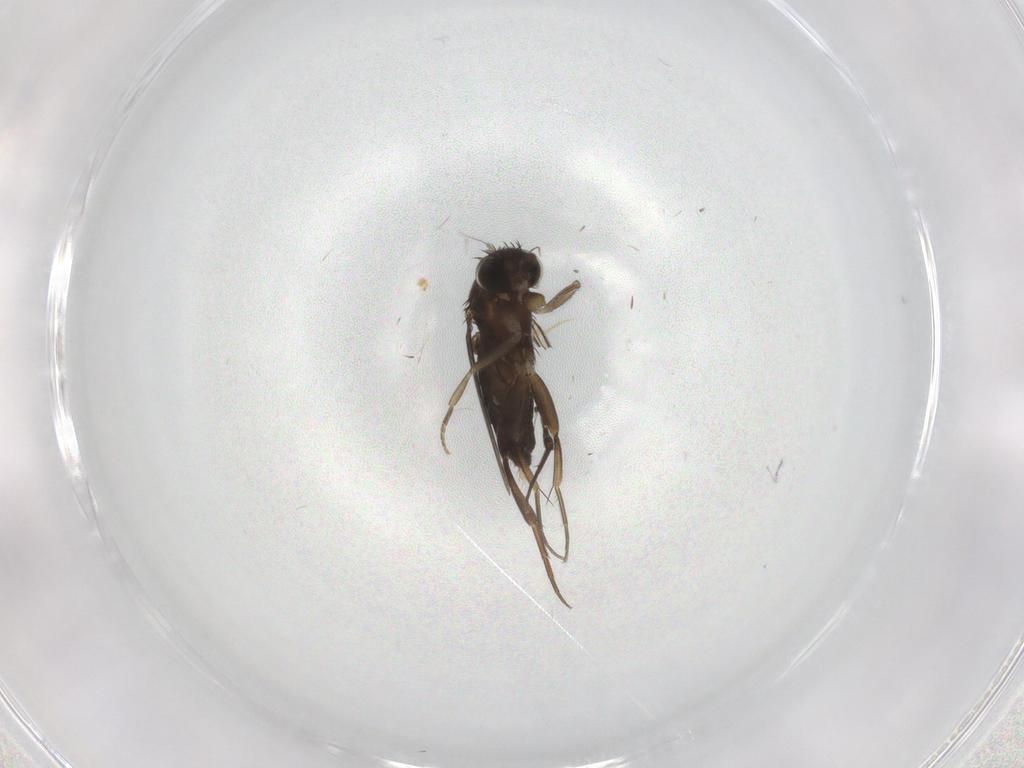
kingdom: Animalia
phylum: Arthropoda
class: Insecta
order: Diptera
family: Phoridae
